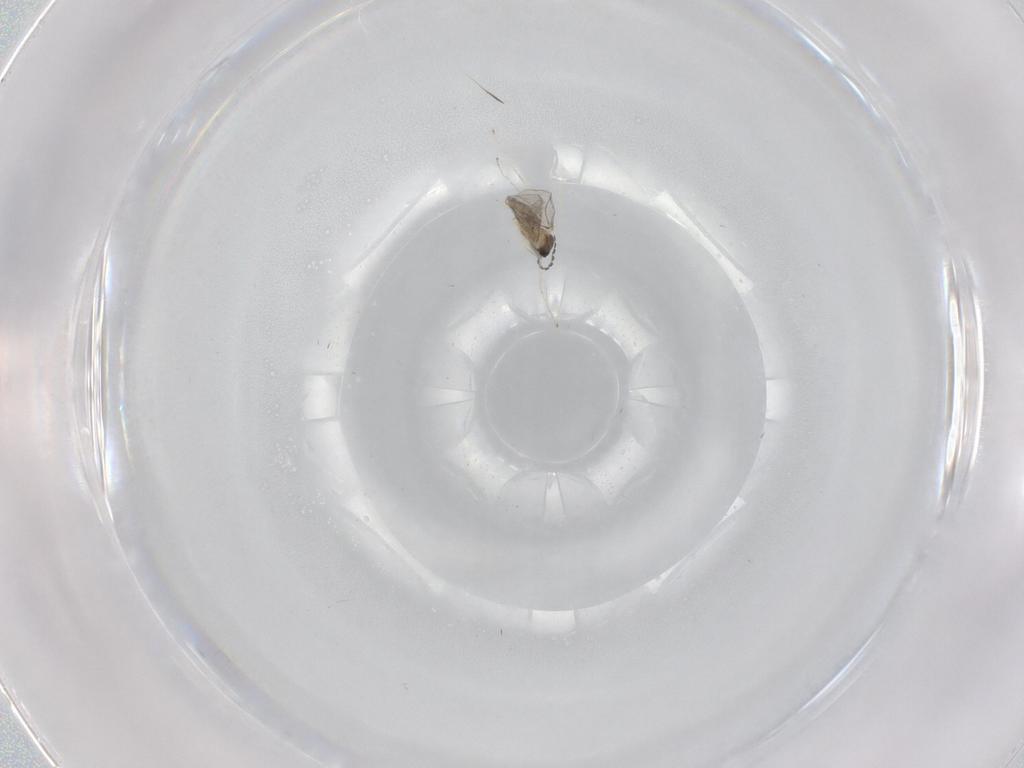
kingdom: Animalia
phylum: Arthropoda
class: Insecta
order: Diptera
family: Cecidomyiidae
